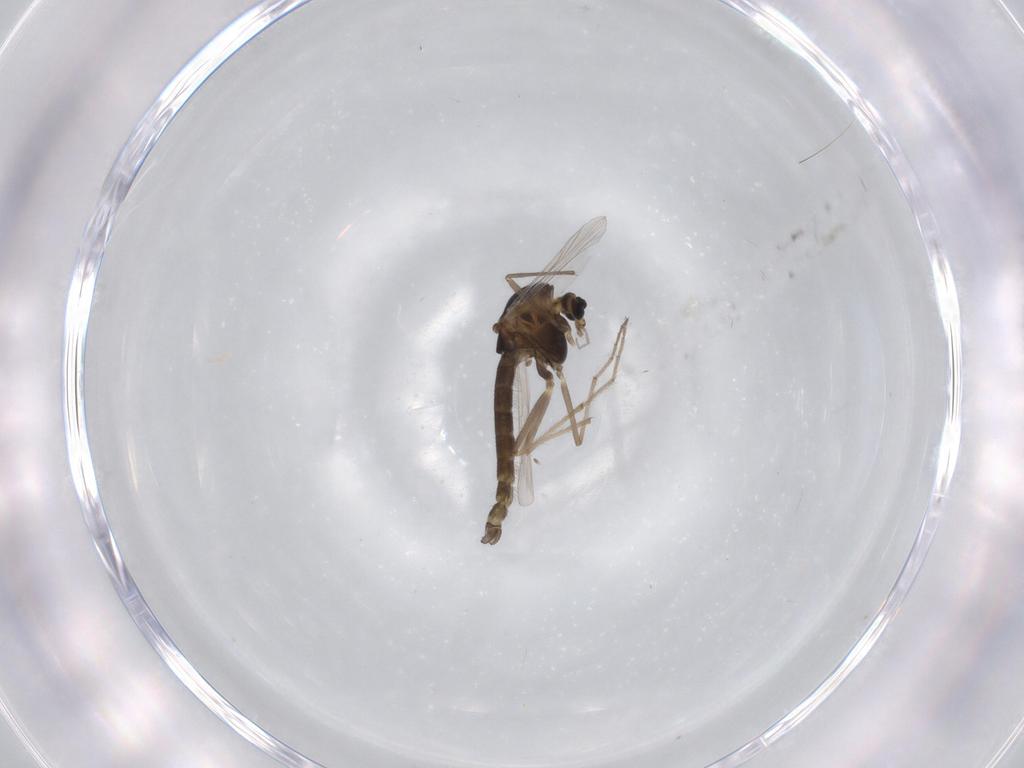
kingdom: Animalia
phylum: Arthropoda
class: Insecta
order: Diptera
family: Chironomidae
